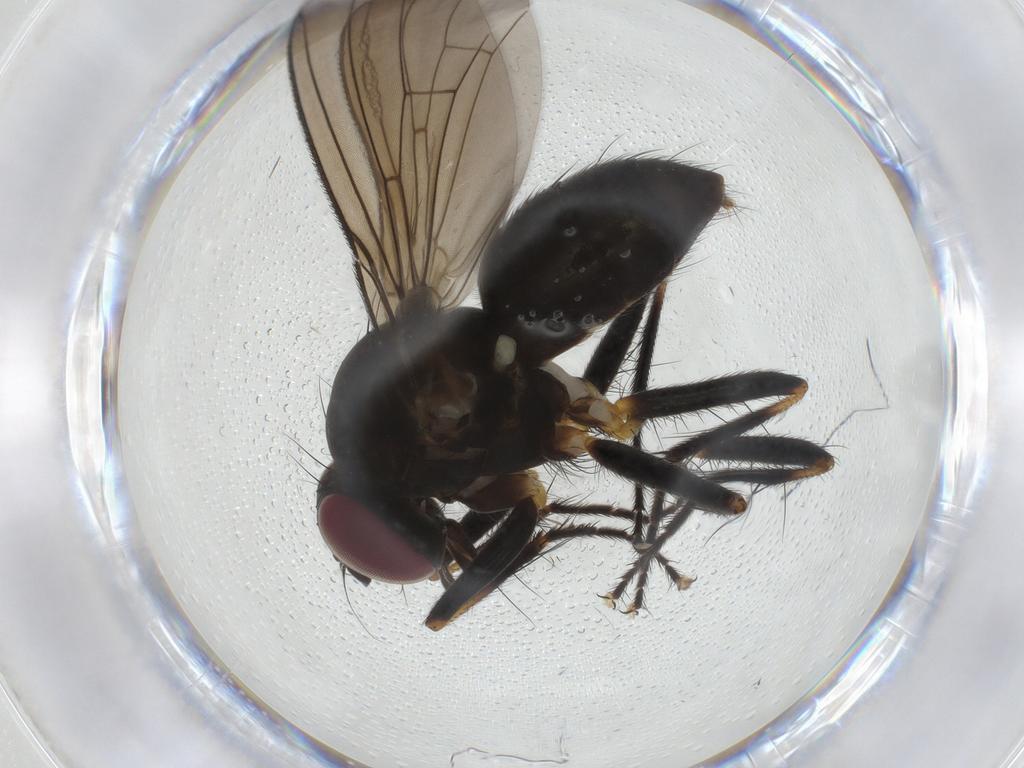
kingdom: Animalia
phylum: Arthropoda
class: Insecta
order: Diptera
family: Anthomyiidae
